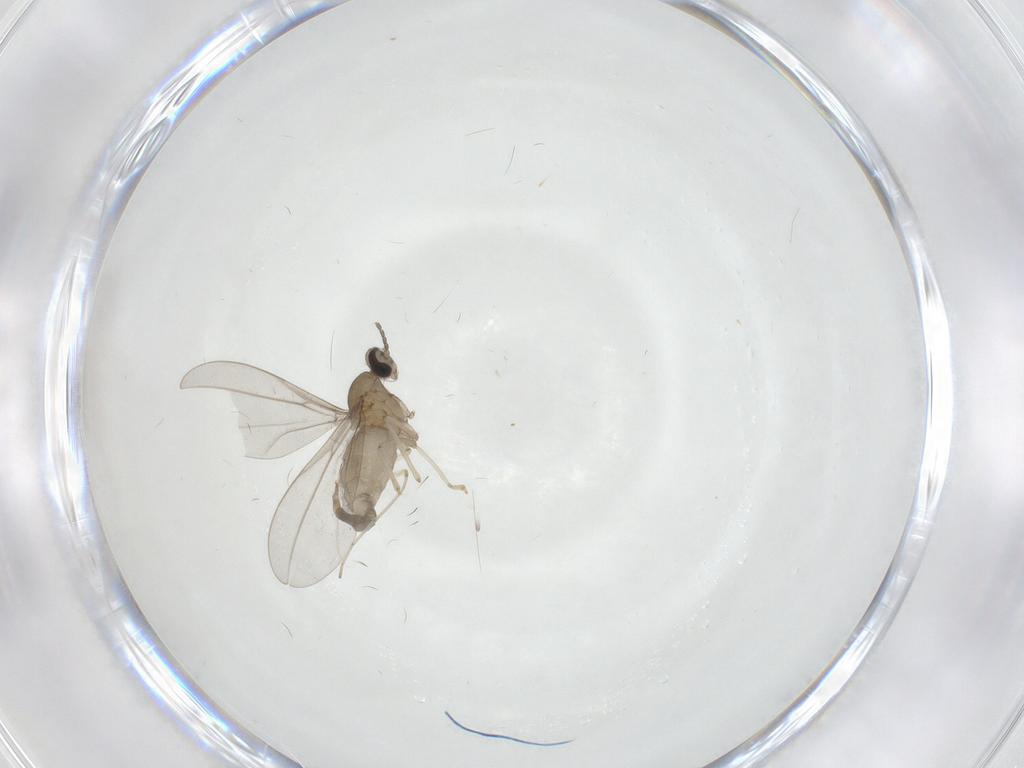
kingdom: Animalia
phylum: Arthropoda
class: Insecta
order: Diptera
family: Cecidomyiidae
